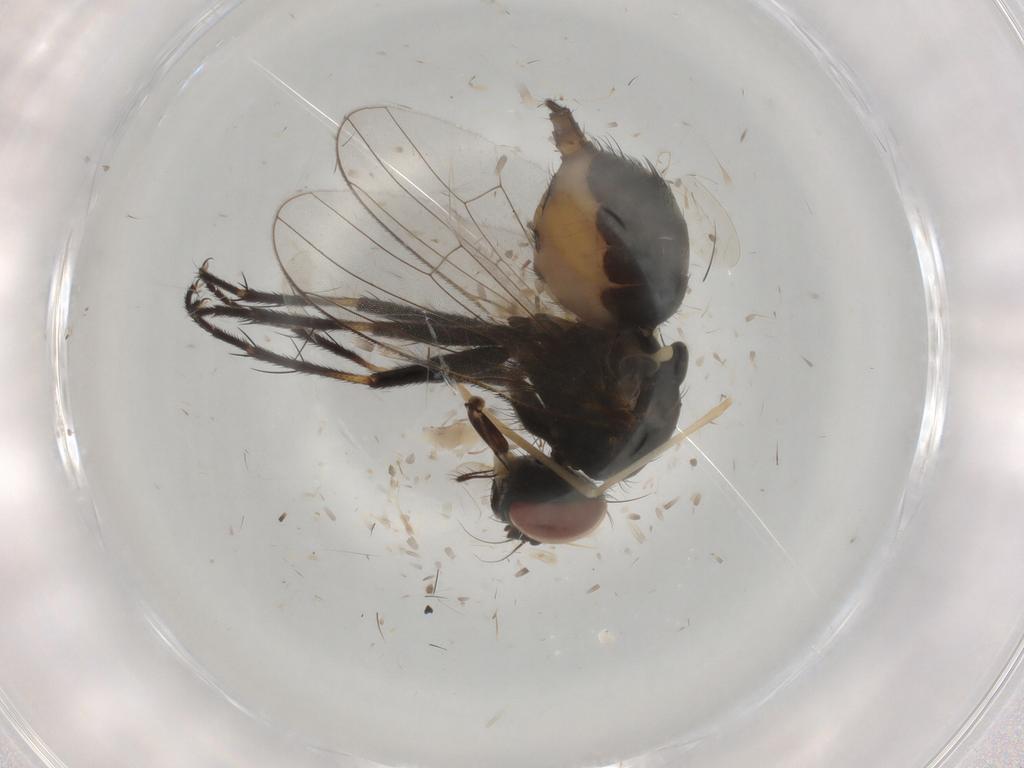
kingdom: Animalia
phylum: Arthropoda
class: Insecta
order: Diptera
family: Muscidae
